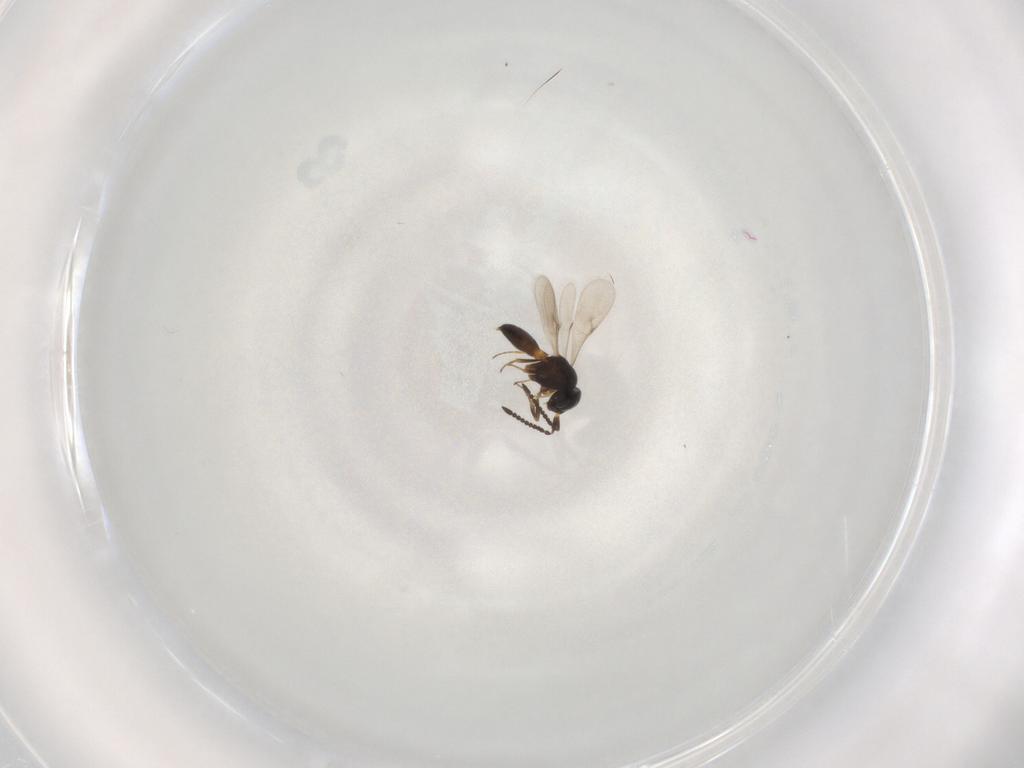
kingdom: Animalia
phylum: Arthropoda
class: Insecta
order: Hymenoptera
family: Scelionidae
